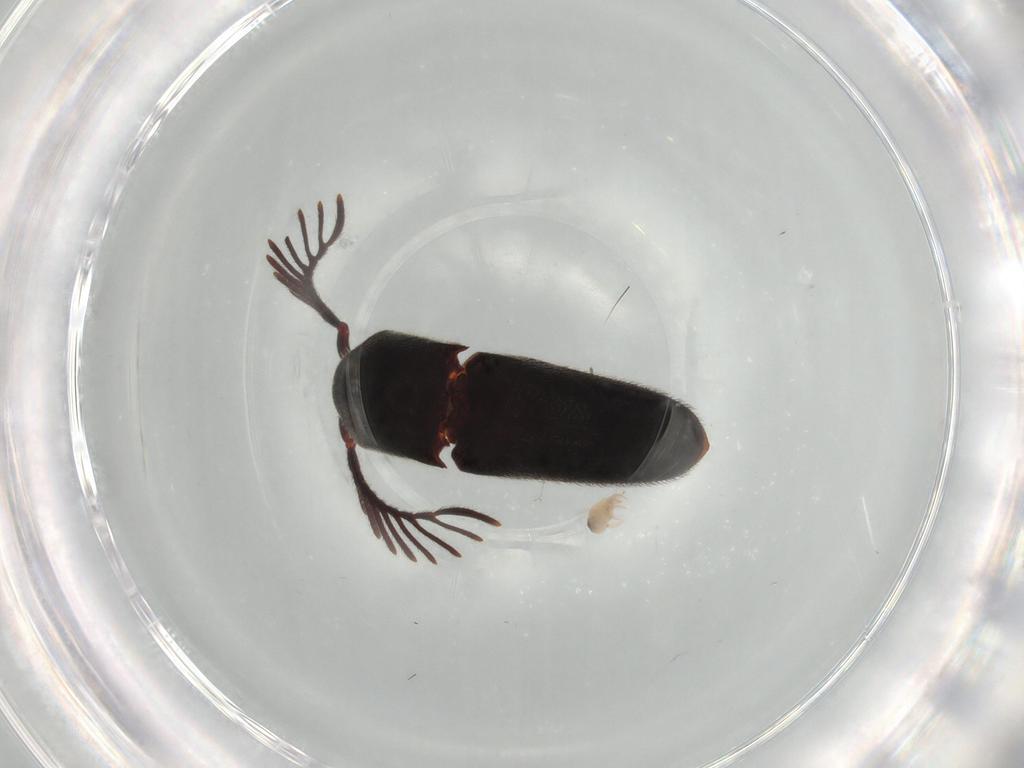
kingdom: Animalia
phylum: Arthropoda
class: Insecta
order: Coleoptera
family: Eucnemidae
